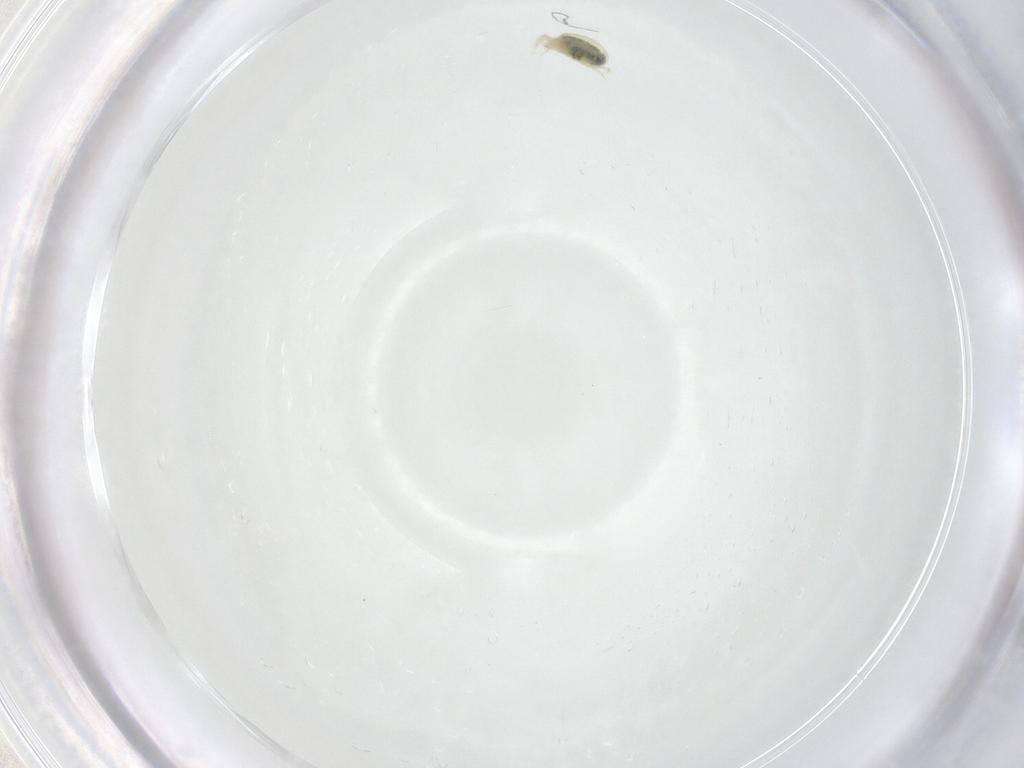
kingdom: Animalia
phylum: Arthropoda
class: Arachnida
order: Trombidiformes
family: Tetranychidae
